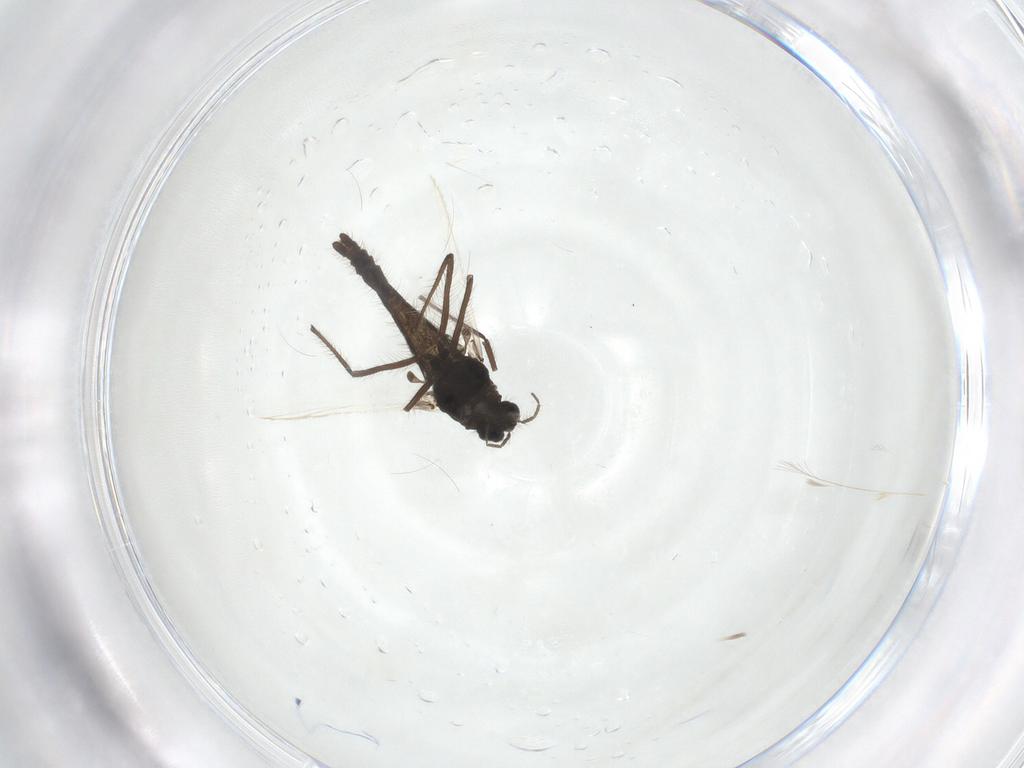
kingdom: Animalia
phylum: Arthropoda
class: Insecta
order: Diptera
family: Chironomidae
